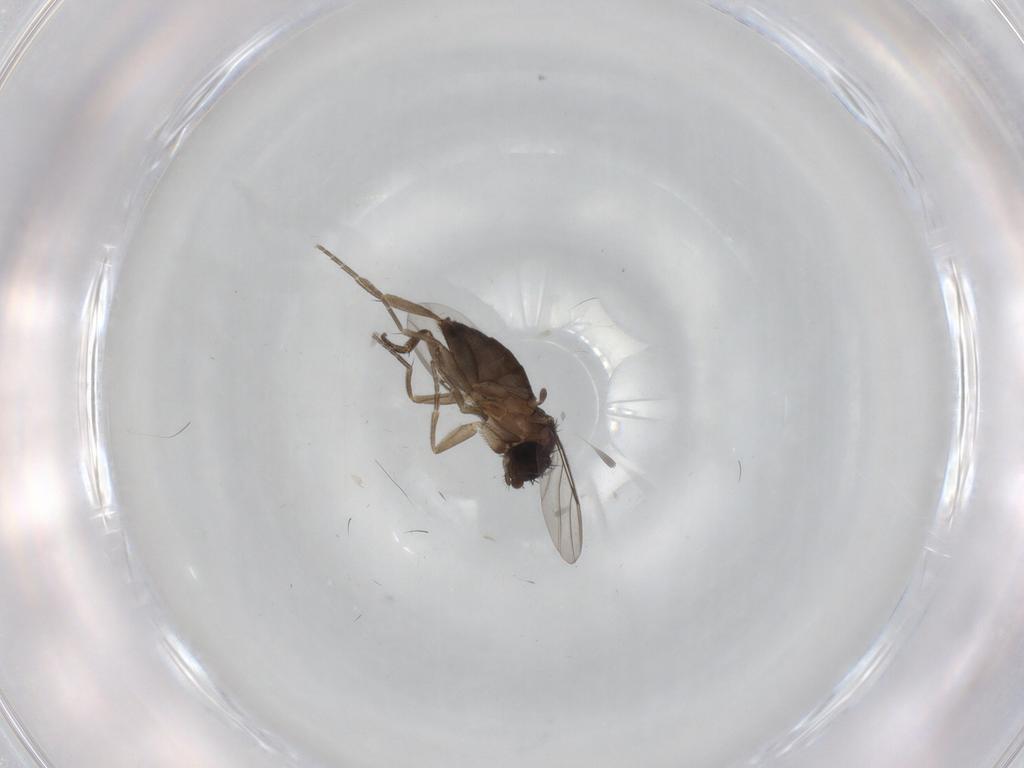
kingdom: Animalia
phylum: Arthropoda
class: Insecta
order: Diptera
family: Phoridae
